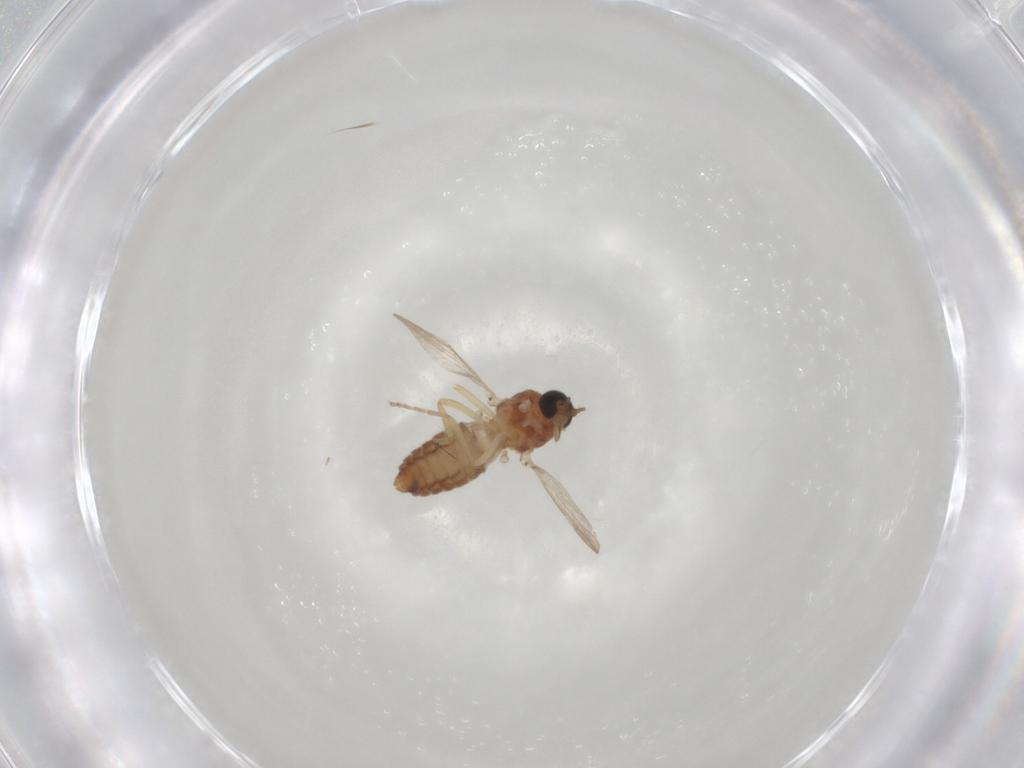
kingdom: Animalia
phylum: Arthropoda
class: Insecta
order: Diptera
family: Ceratopogonidae
